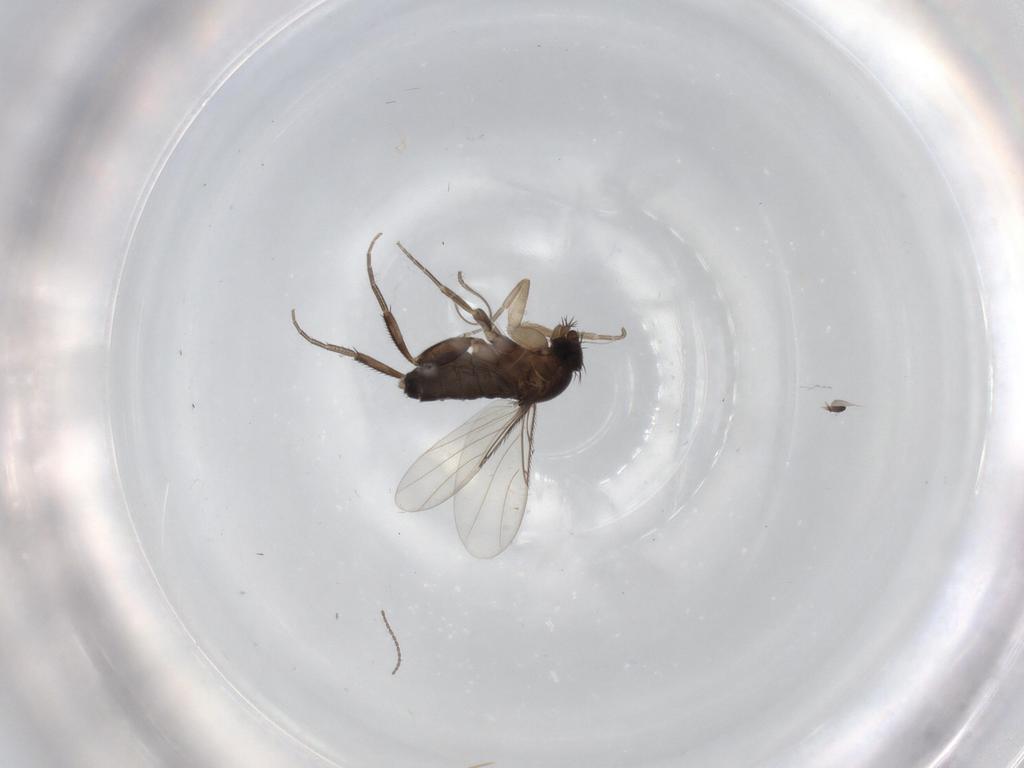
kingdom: Animalia
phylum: Arthropoda
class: Insecta
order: Diptera
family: Phoridae
